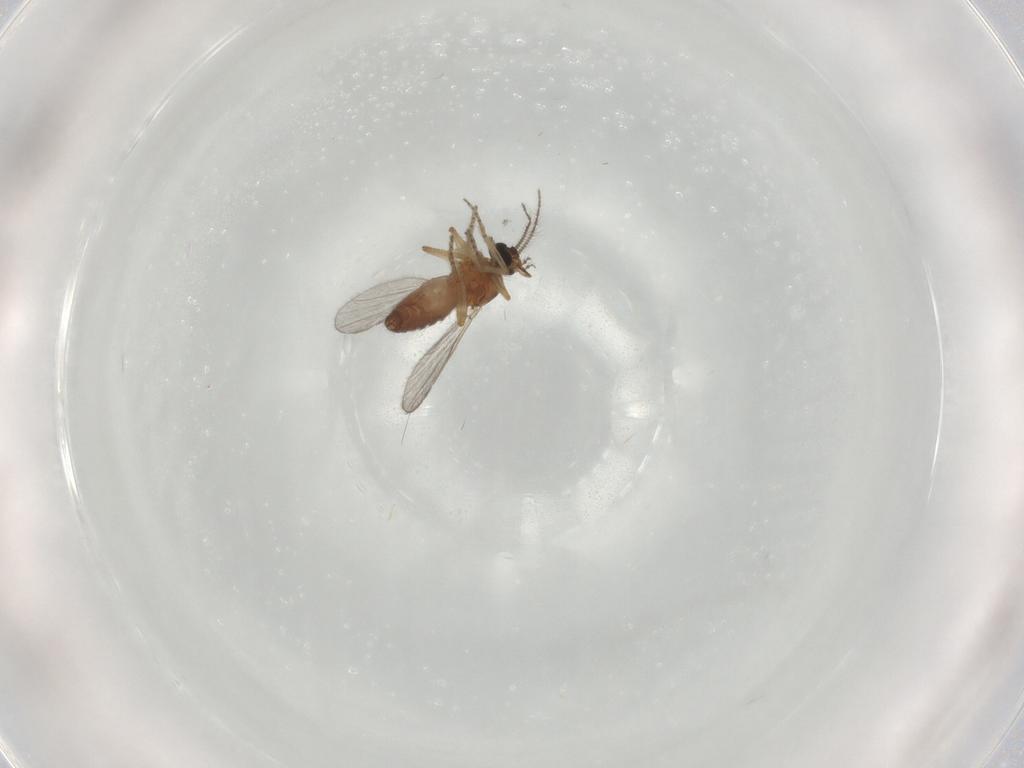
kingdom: Animalia
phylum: Arthropoda
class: Insecta
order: Diptera
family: Ceratopogonidae
